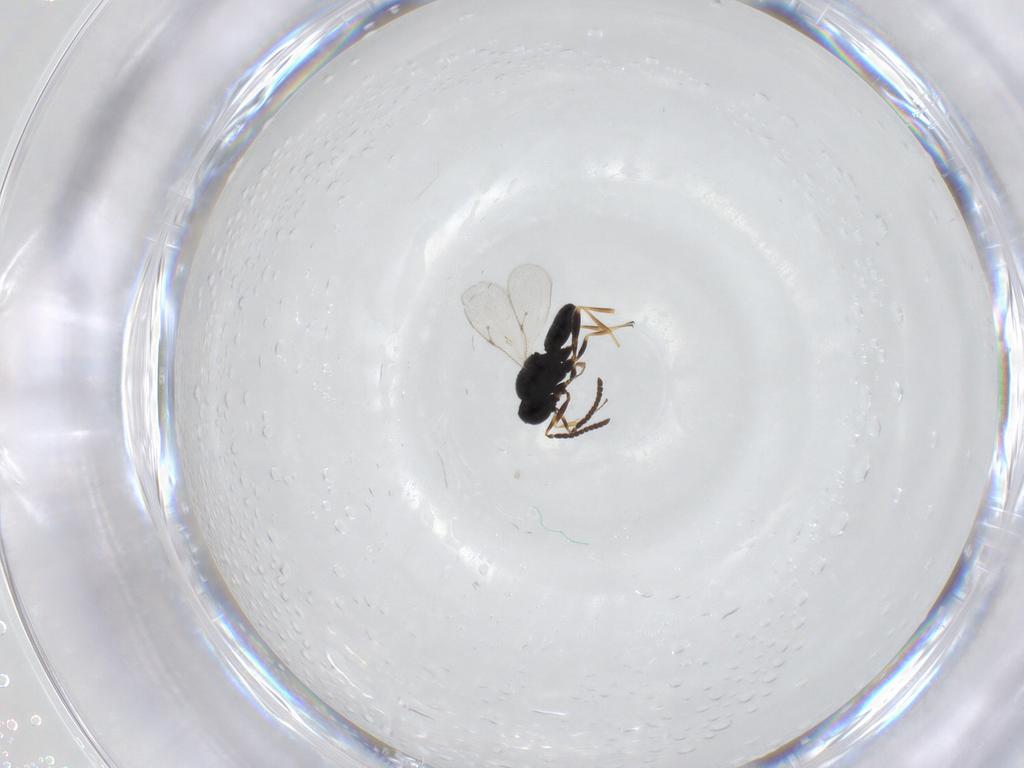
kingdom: Animalia
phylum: Arthropoda
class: Insecta
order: Hymenoptera
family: Scelionidae
